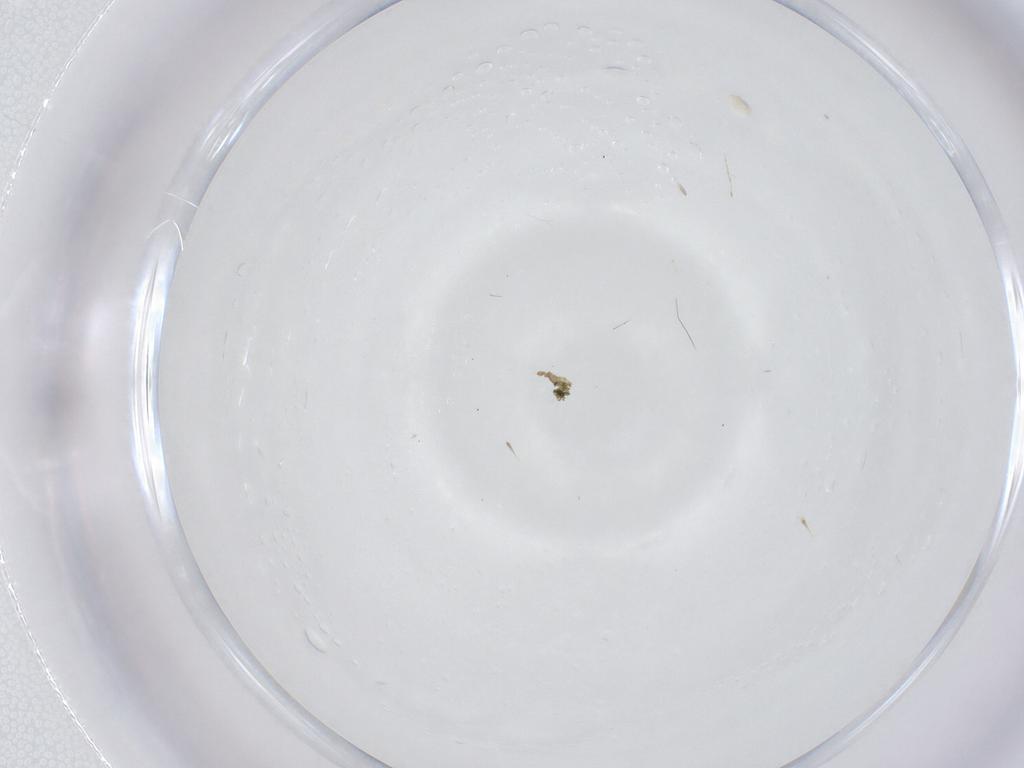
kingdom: Animalia
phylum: Arthropoda
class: Insecta
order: Diptera
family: Cecidomyiidae
